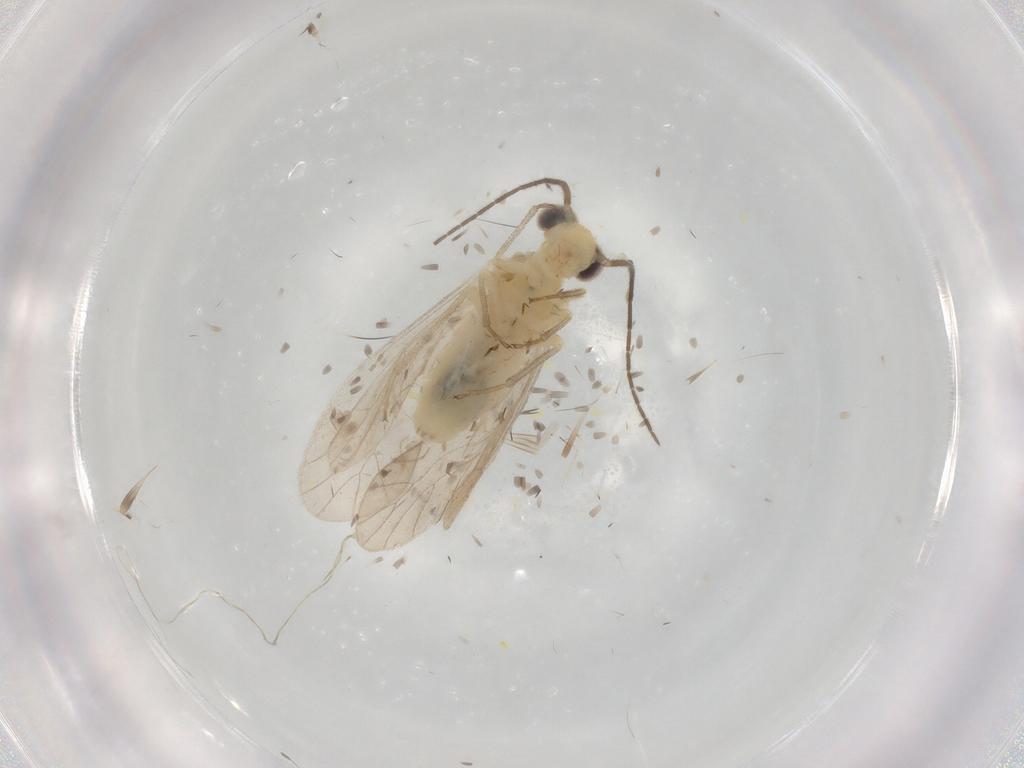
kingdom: Animalia
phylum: Arthropoda
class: Insecta
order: Psocodea
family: Caeciliusidae
